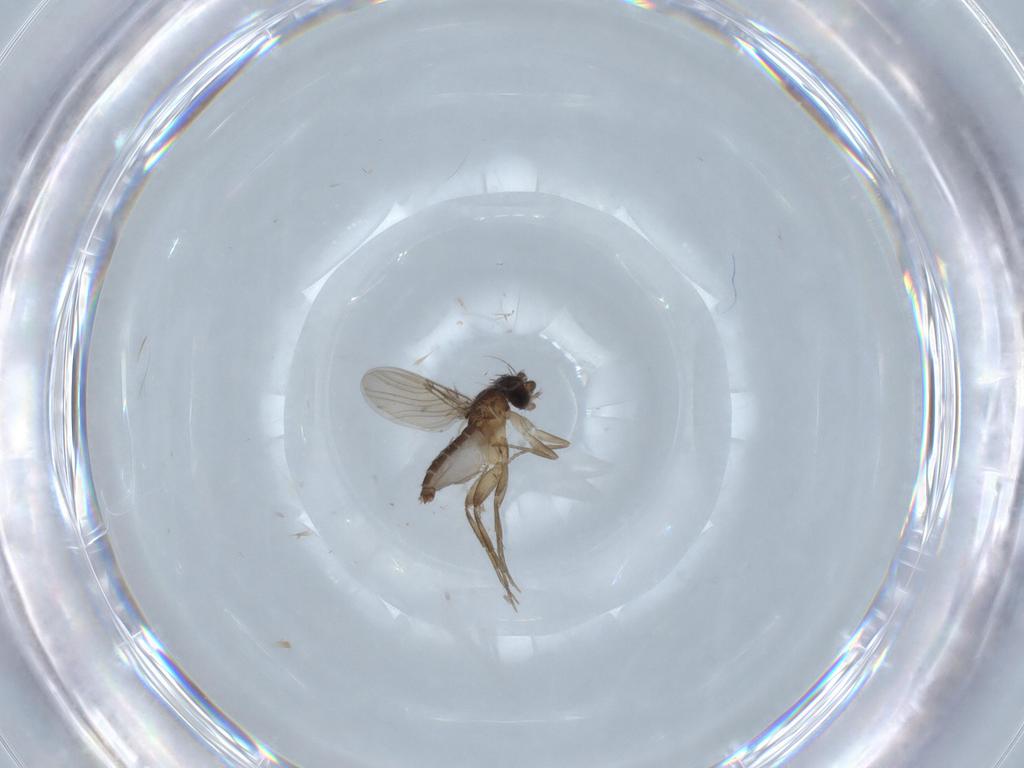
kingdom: Animalia
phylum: Arthropoda
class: Insecta
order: Diptera
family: Phoridae
